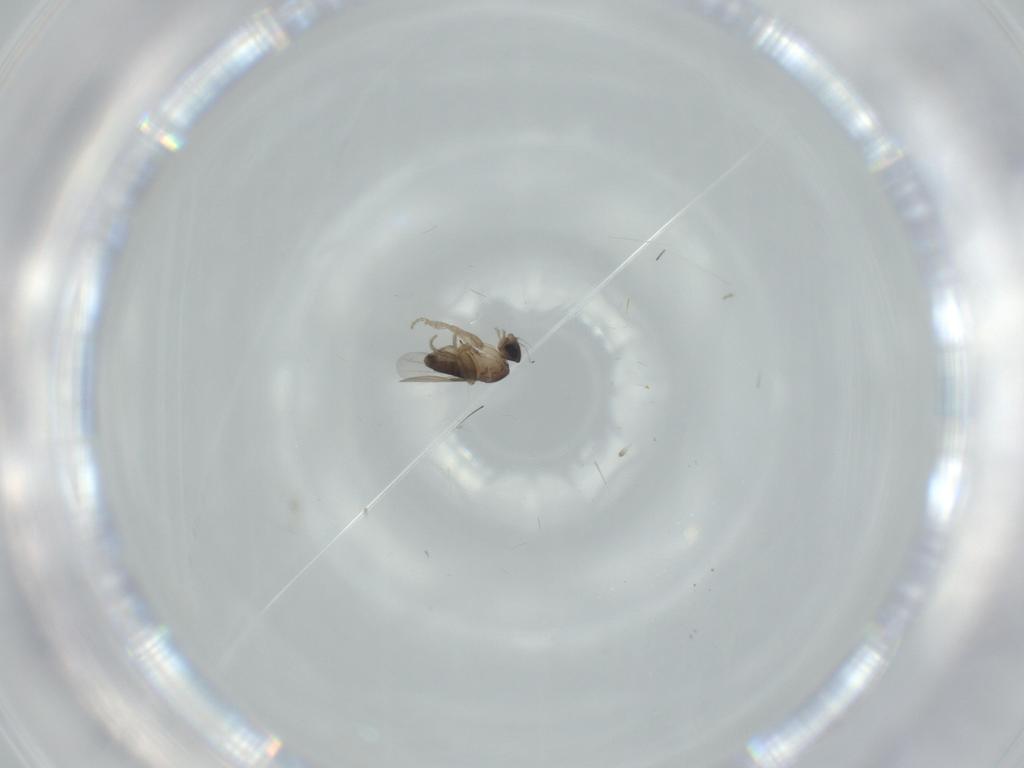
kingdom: Animalia
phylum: Arthropoda
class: Insecta
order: Diptera
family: Phoridae
